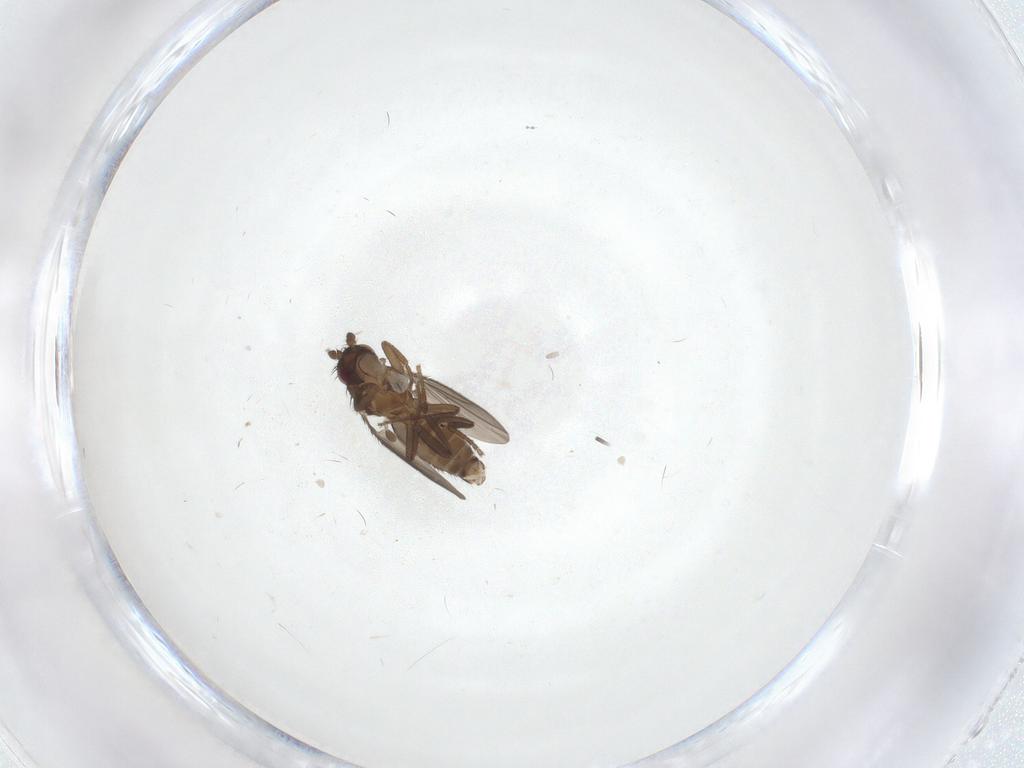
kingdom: Animalia
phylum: Arthropoda
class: Insecta
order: Diptera
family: Sphaeroceridae
